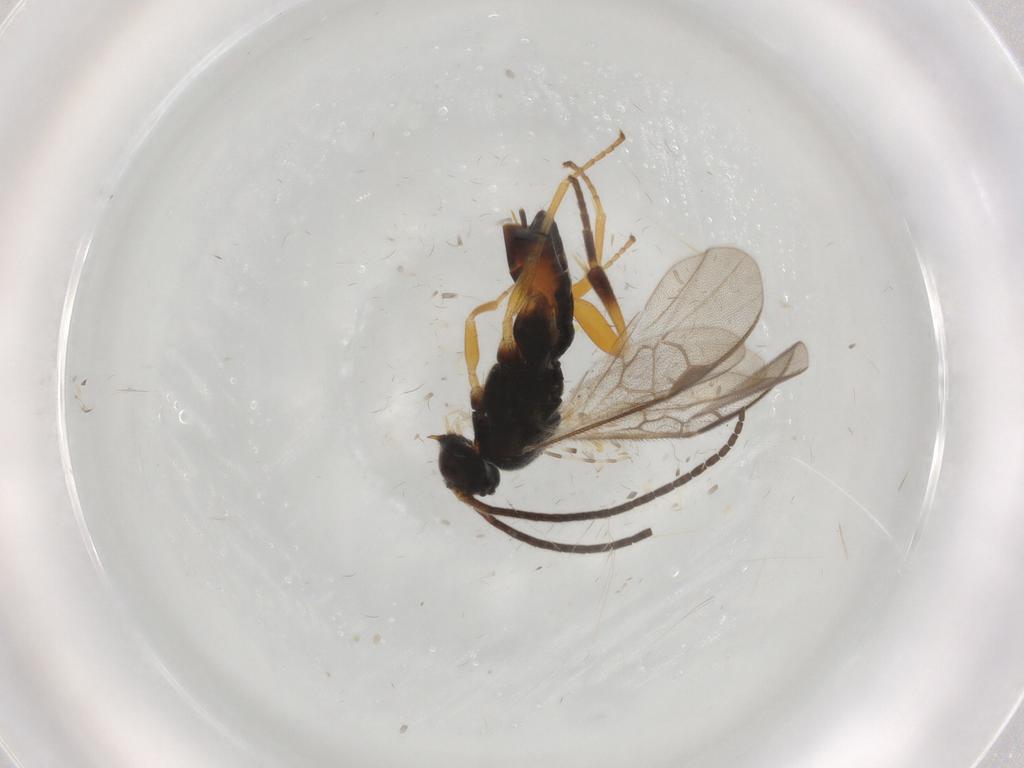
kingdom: Animalia
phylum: Arthropoda
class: Insecta
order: Hymenoptera
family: Braconidae
